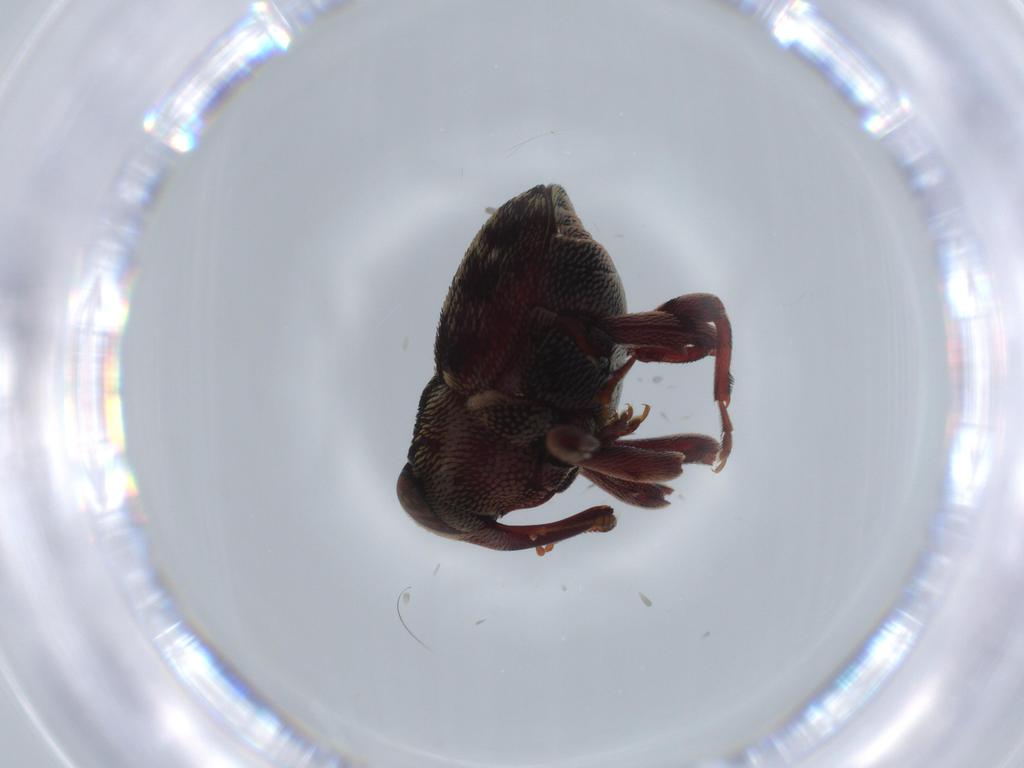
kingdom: Animalia
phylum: Arthropoda
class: Insecta
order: Coleoptera
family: Curculionidae
